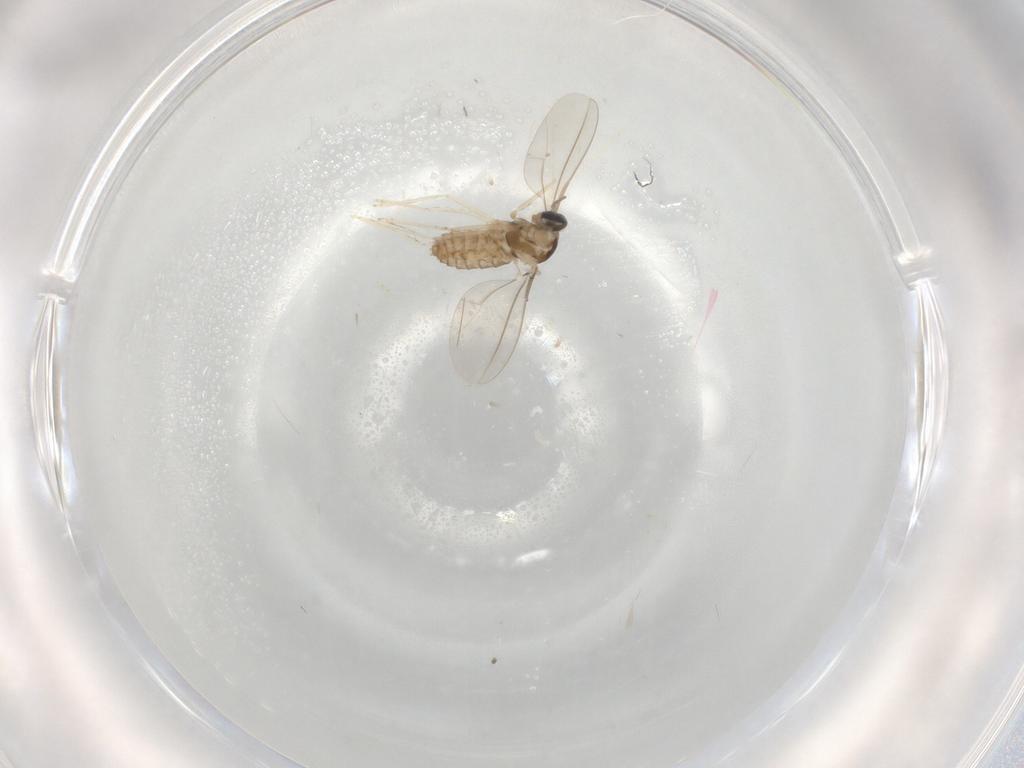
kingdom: Animalia
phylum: Arthropoda
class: Insecta
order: Diptera
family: Cecidomyiidae
